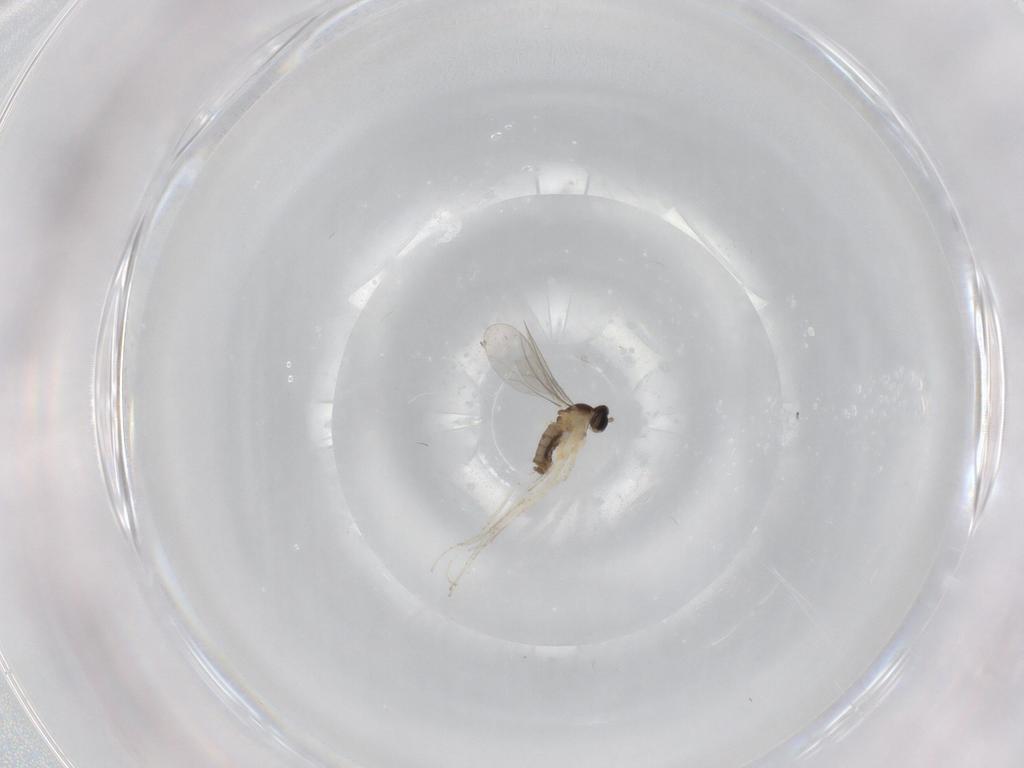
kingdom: Animalia
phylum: Arthropoda
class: Insecta
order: Diptera
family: Cecidomyiidae
